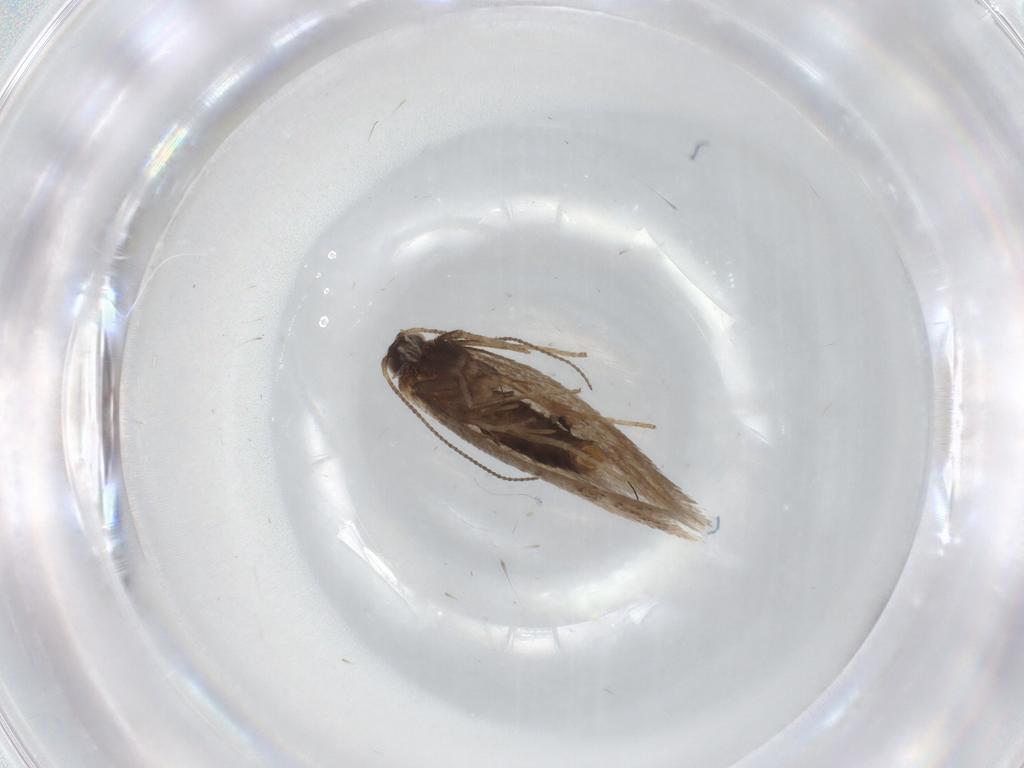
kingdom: Animalia
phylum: Arthropoda
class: Insecta
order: Lepidoptera
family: Nepticulidae
